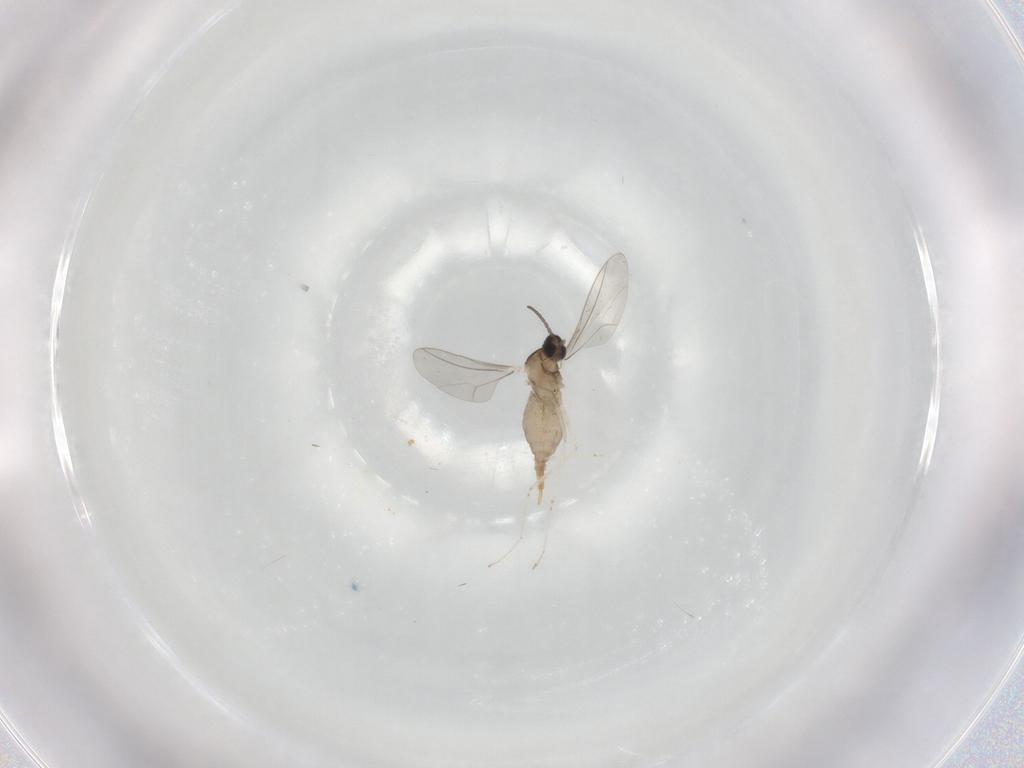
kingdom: Animalia
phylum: Arthropoda
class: Insecta
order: Diptera
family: Cecidomyiidae
